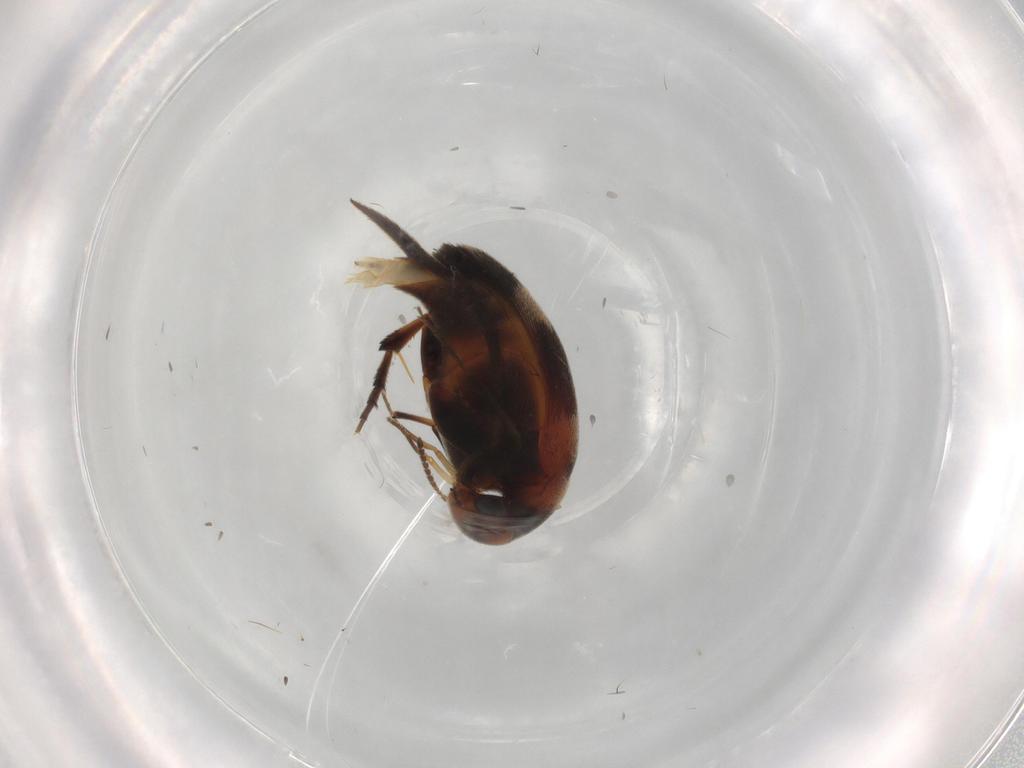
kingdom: Animalia
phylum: Arthropoda
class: Insecta
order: Coleoptera
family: Mordellidae
